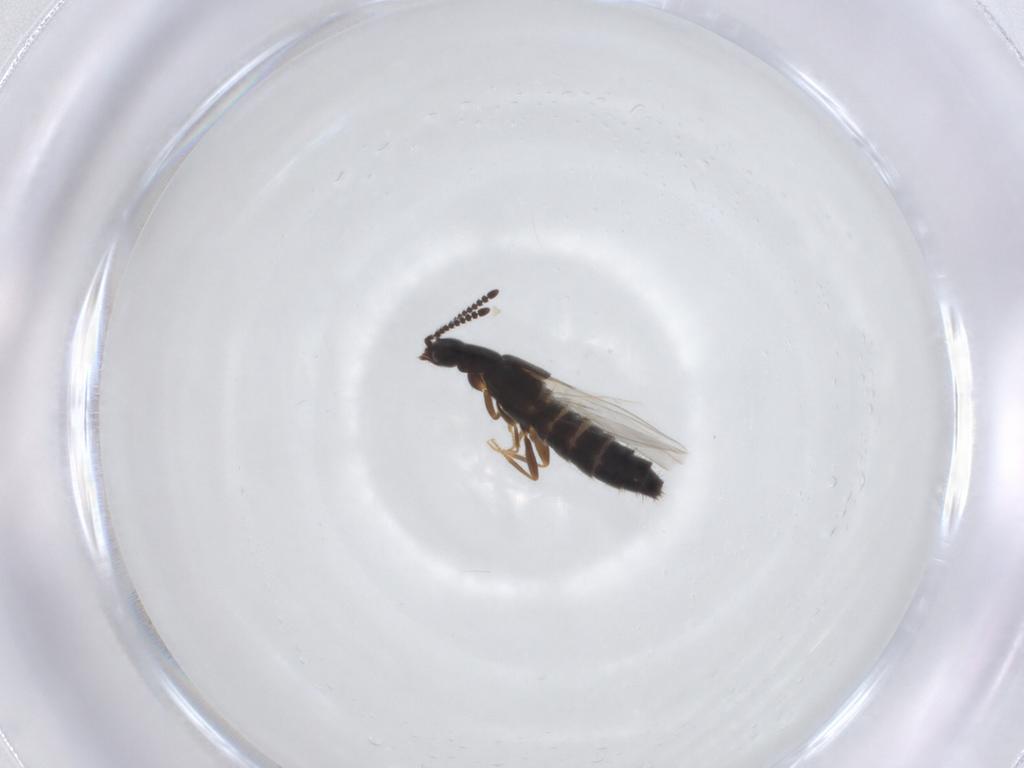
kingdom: Animalia
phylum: Arthropoda
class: Insecta
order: Coleoptera
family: Staphylinidae
